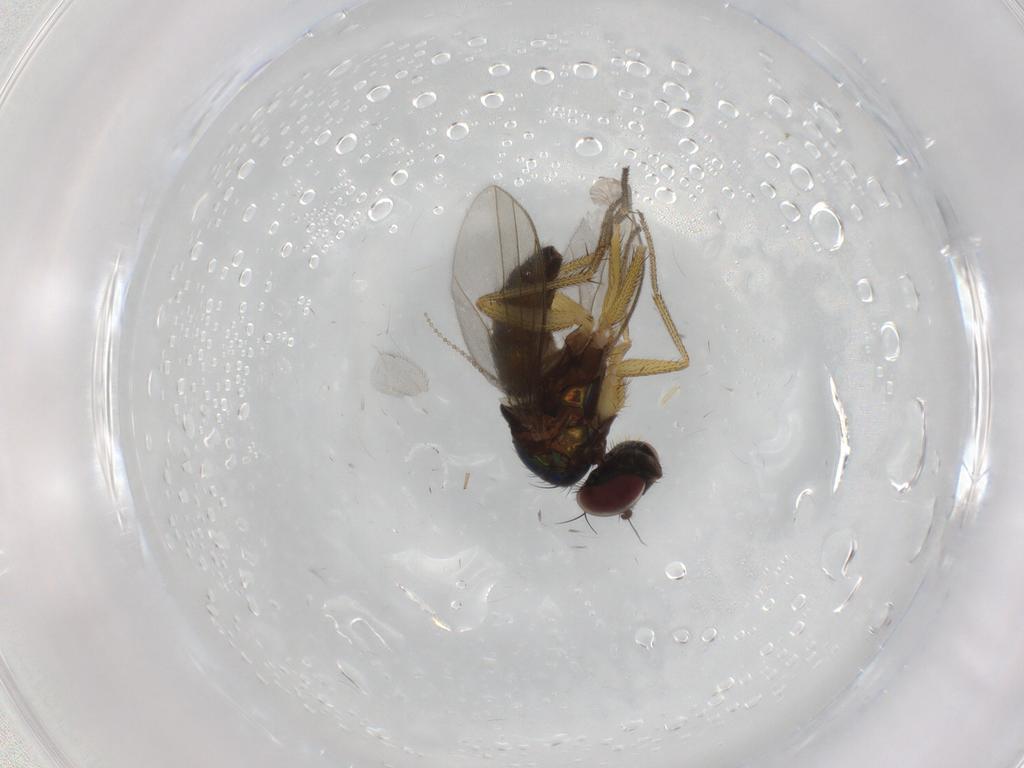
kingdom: Animalia
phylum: Arthropoda
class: Insecta
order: Diptera
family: Dolichopodidae
